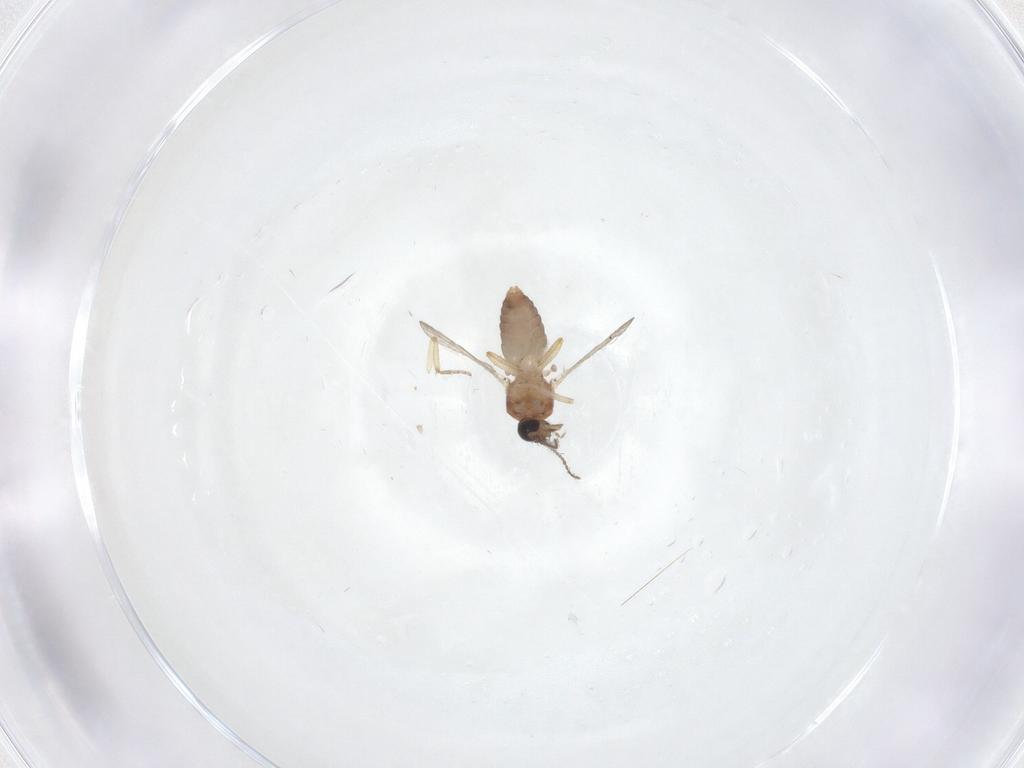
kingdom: Animalia
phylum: Arthropoda
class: Insecta
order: Diptera
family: Ceratopogonidae
